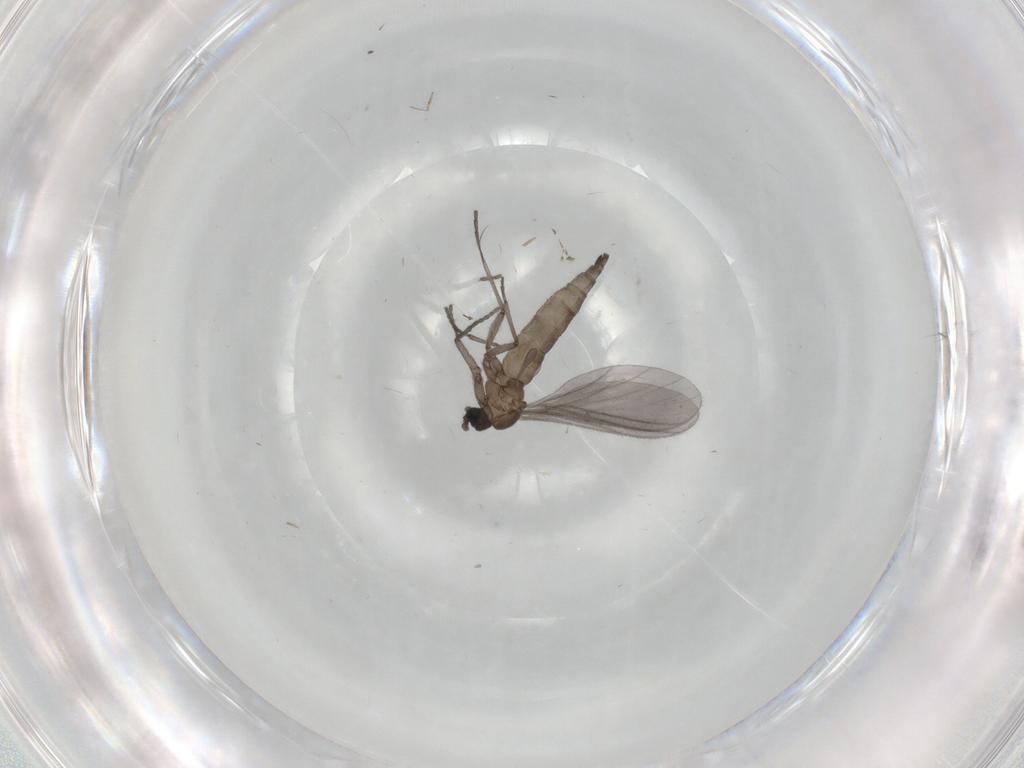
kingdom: Animalia
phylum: Arthropoda
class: Insecta
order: Diptera
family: Sciaridae
